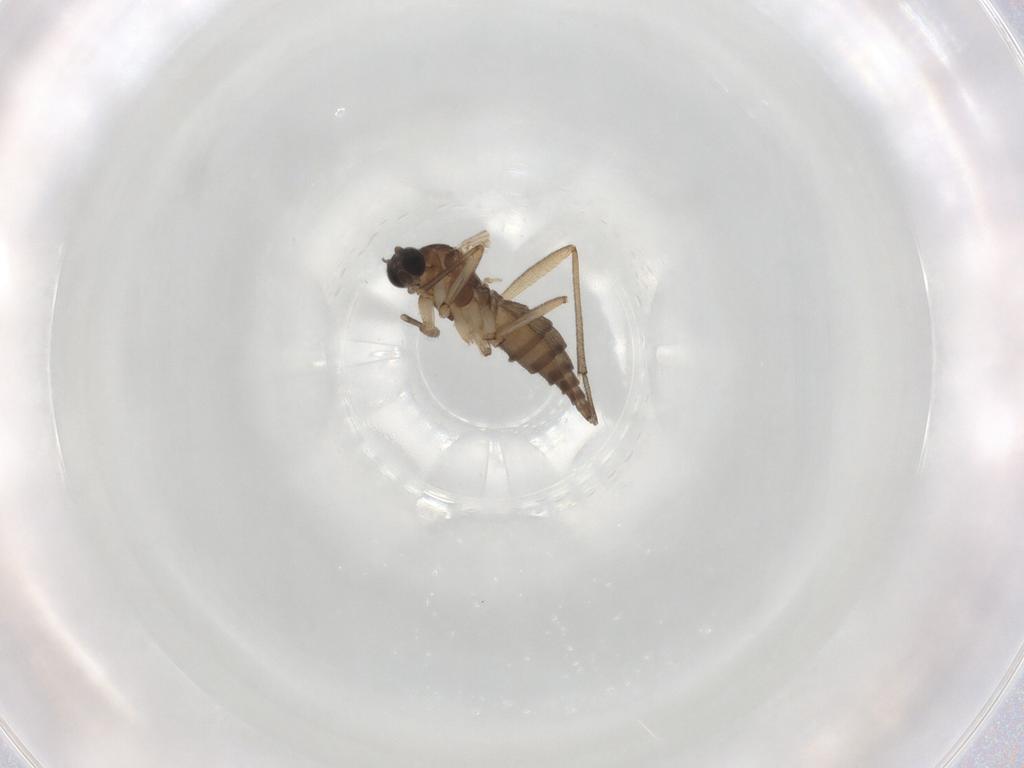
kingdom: Animalia
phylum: Arthropoda
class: Insecta
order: Diptera
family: Sciaridae
